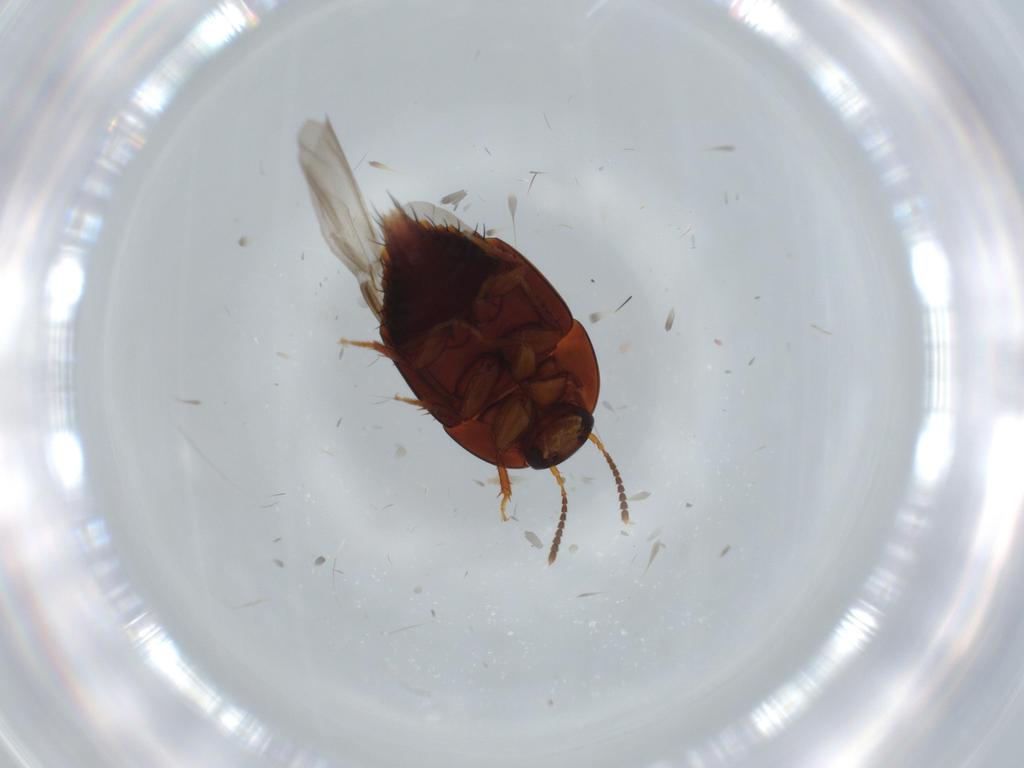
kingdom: Animalia
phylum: Arthropoda
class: Insecta
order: Coleoptera
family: Staphylinidae
